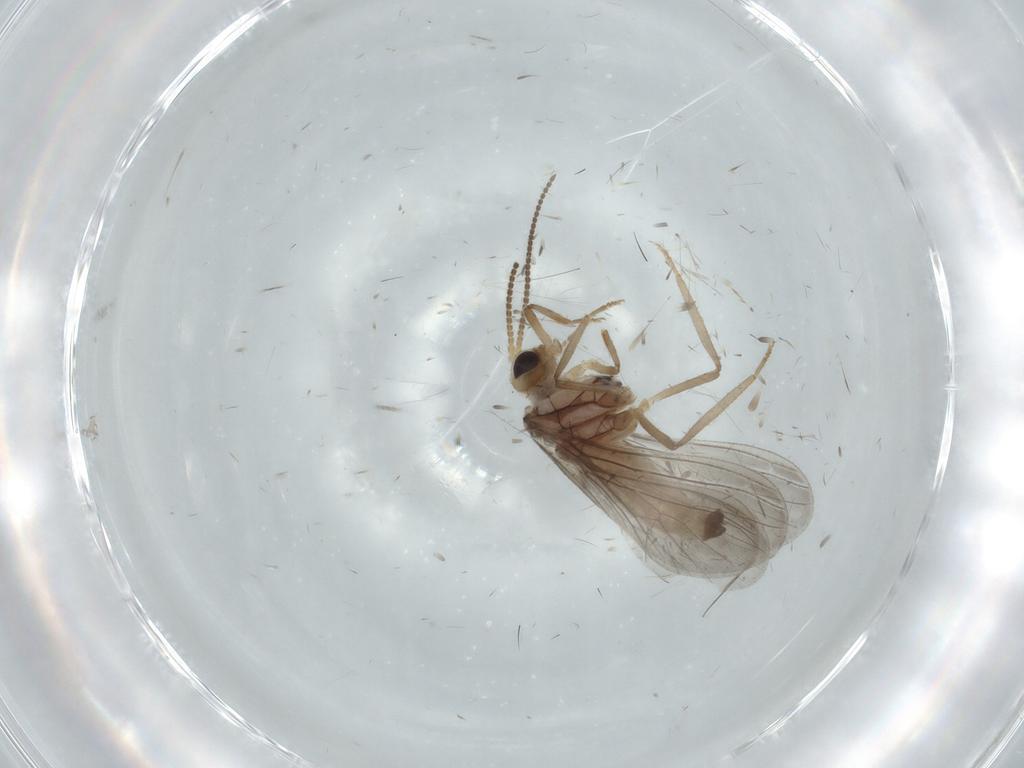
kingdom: Animalia
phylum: Arthropoda
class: Insecta
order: Neuroptera
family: Coniopterygidae
